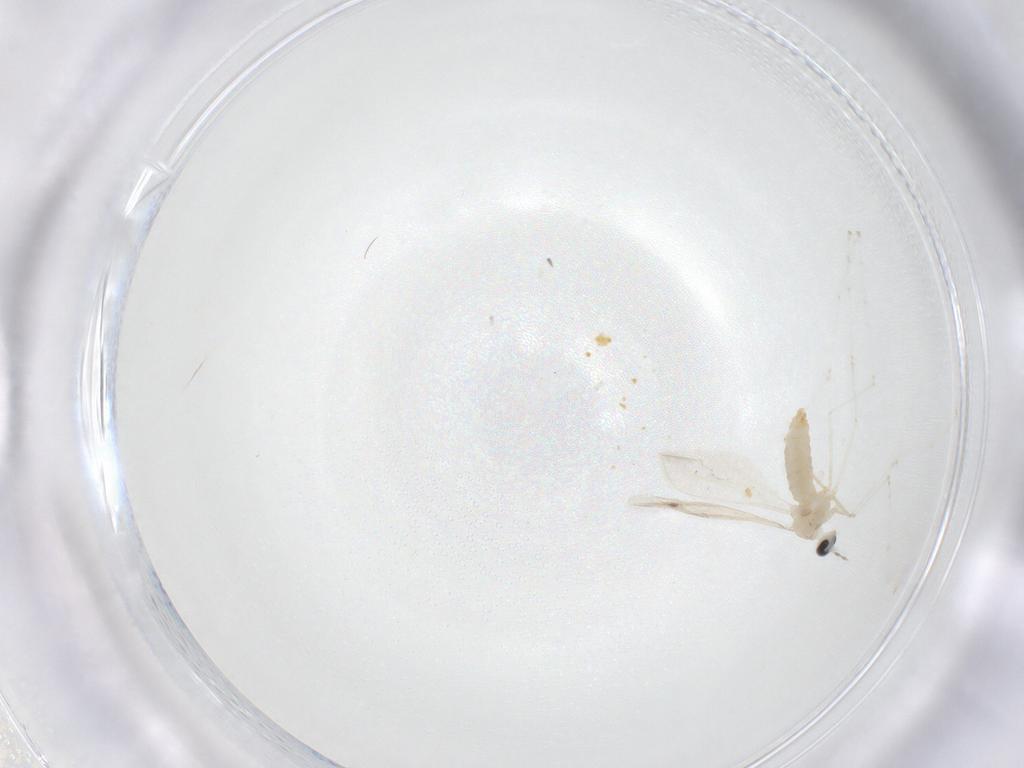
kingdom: Animalia
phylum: Arthropoda
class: Insecta
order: Diptera
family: Cecidomyiidae
